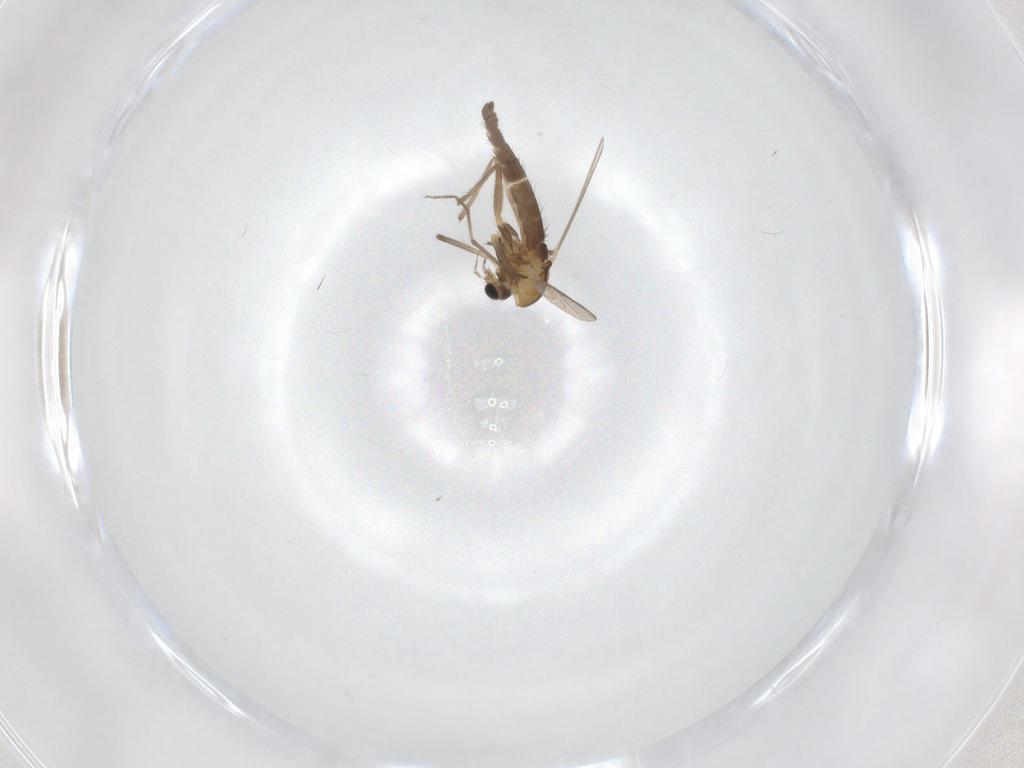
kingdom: Animalia
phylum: Arthropoda
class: Insecta
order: Diptera
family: Chironomidae
